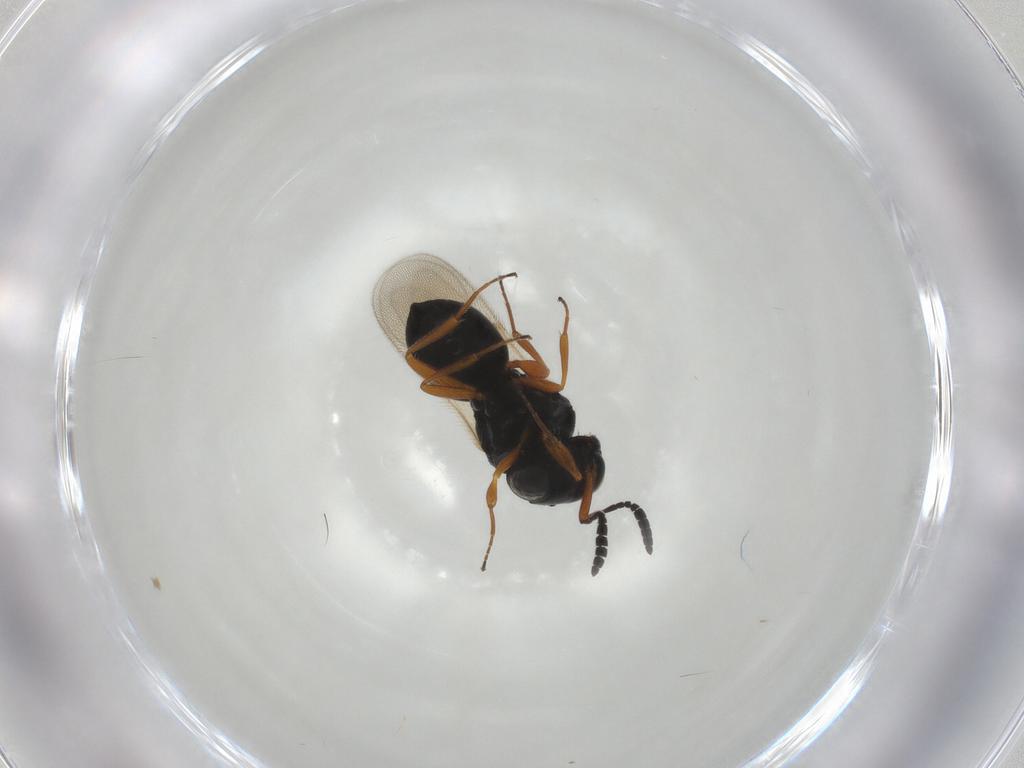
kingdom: Animalia
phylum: Arthropoda
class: Insecta
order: Hymenoptera
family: Scelionidae
